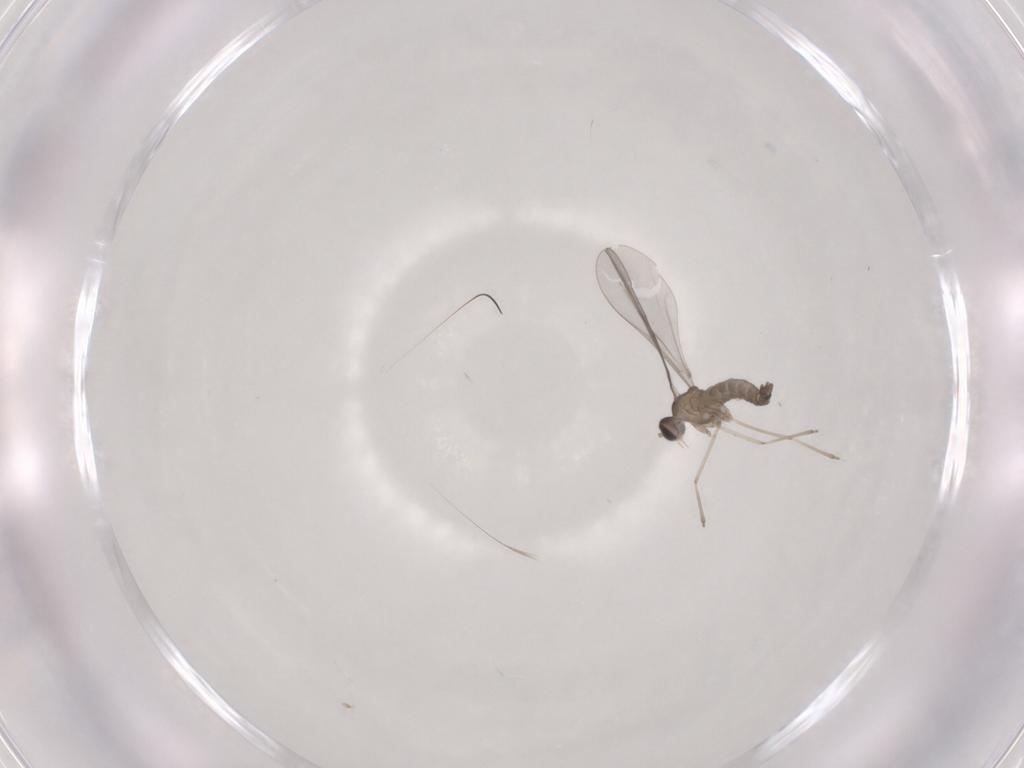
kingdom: Animalia
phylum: Arthropoda
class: Insecta
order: Diptera
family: Cecidomyiidae
